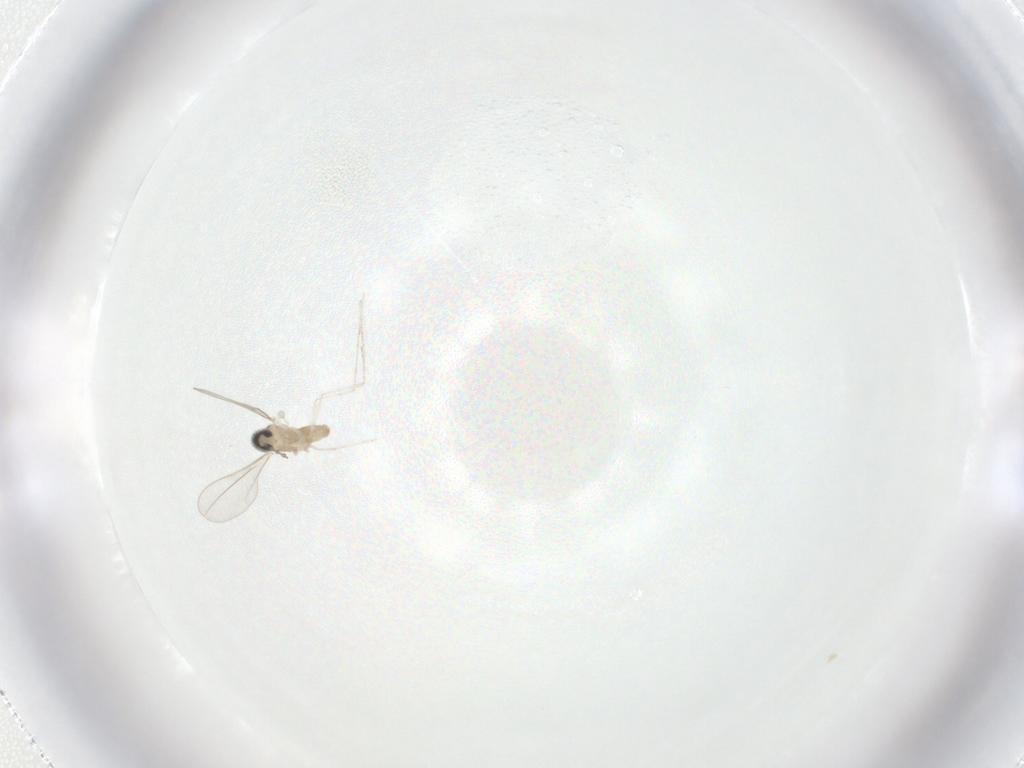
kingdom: Animalia
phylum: Arthropoda
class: Insecta
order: Diptera
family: Cecidomyiidae
